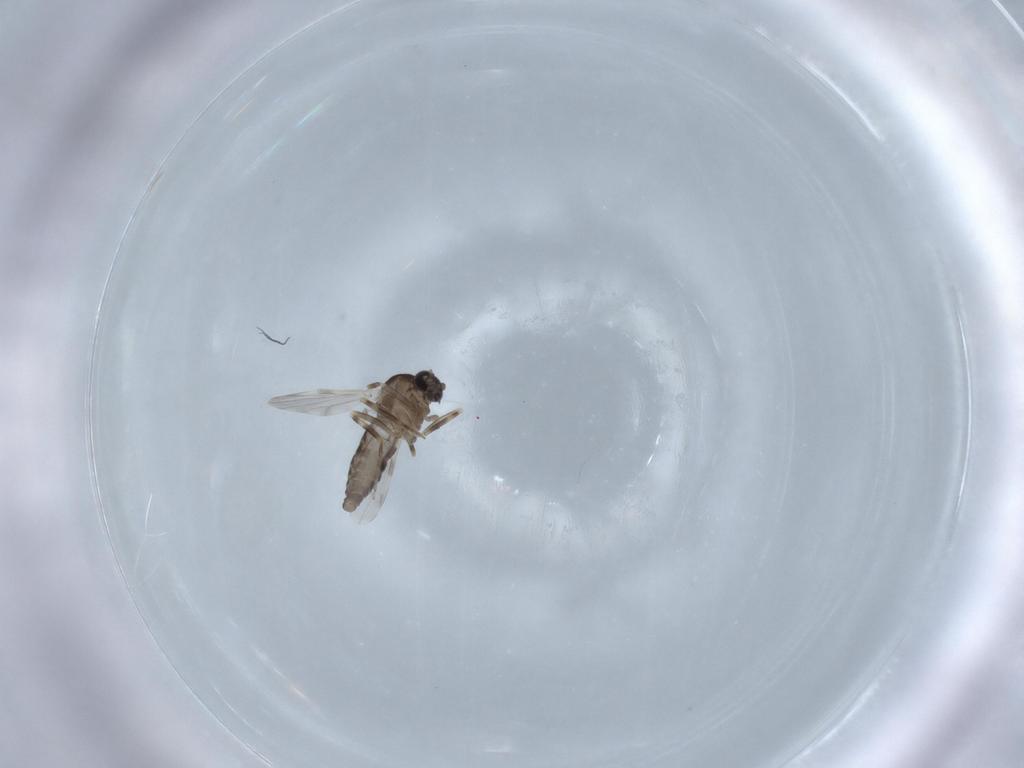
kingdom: Animalia
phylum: Arthropoda
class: Insecta
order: Diptera
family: Ceratopogonidae
